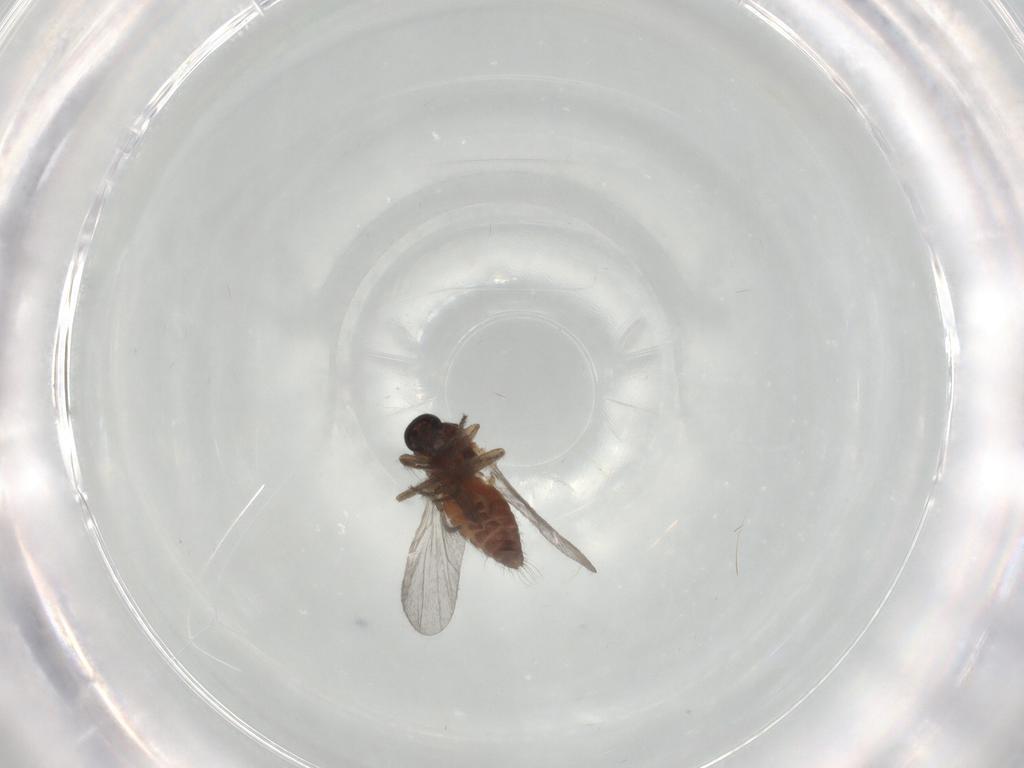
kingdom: Animalia
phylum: Arthropoda
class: Insecta
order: Diptera
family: Ceratopogonidae
